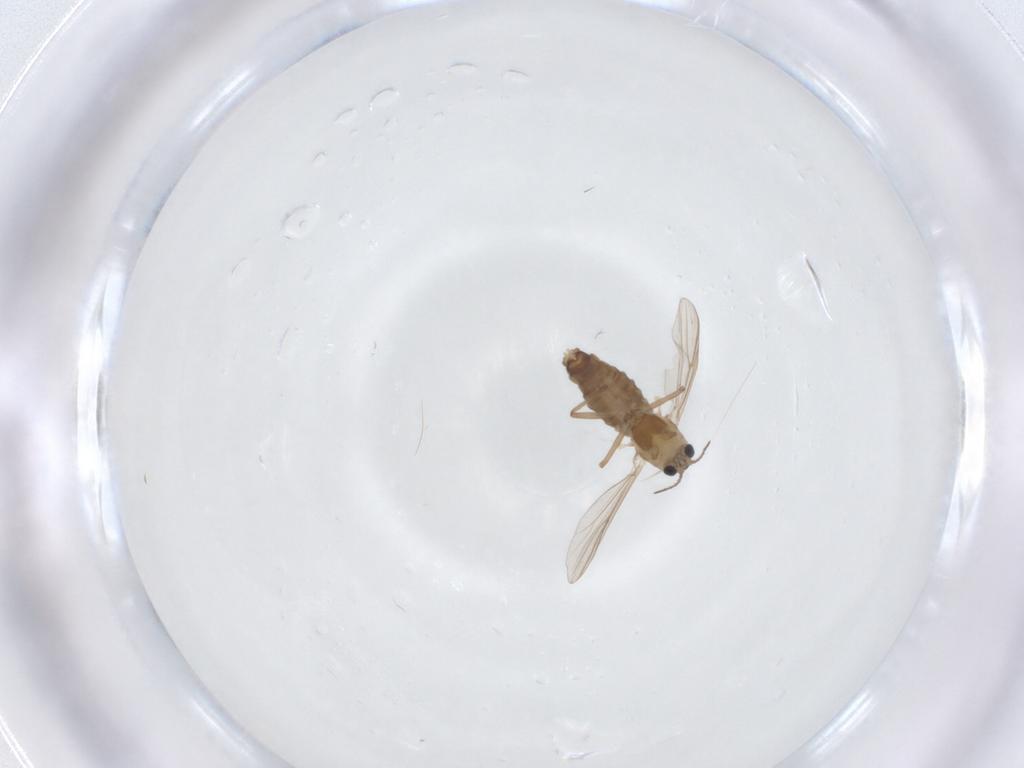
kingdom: Animalia
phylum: Arthropoda
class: Insecta
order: Diptera
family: Chironomidae
